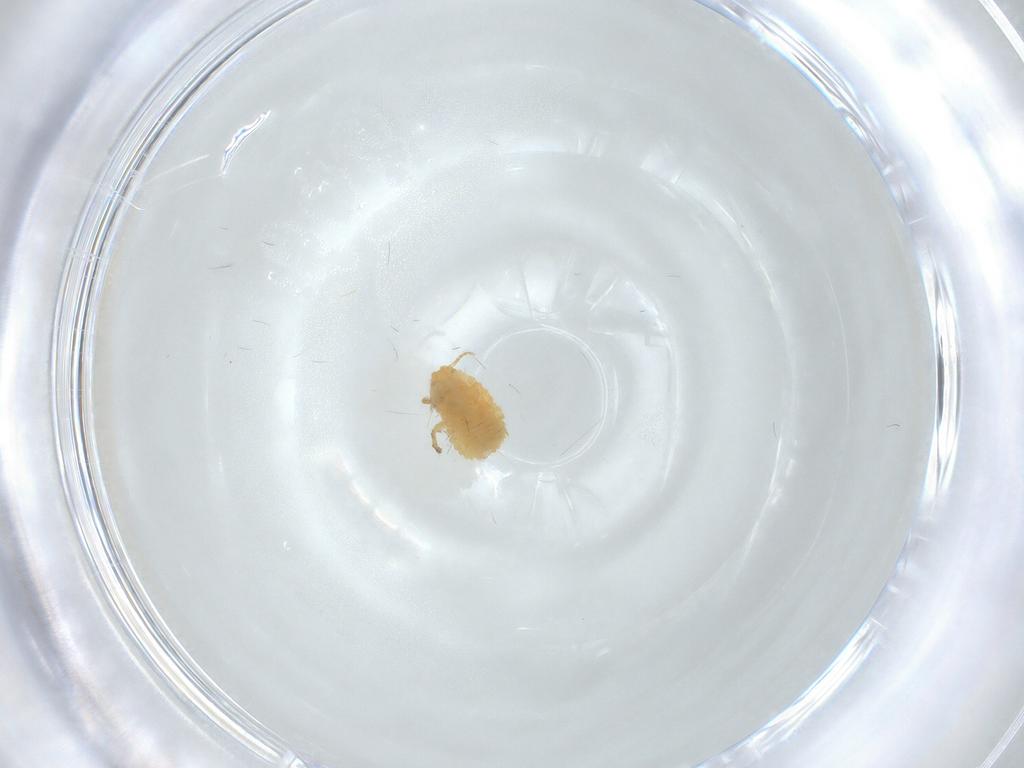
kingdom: Animalia
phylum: Arthropoda
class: Insecta
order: Hemiptera
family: Pseudococcidae
